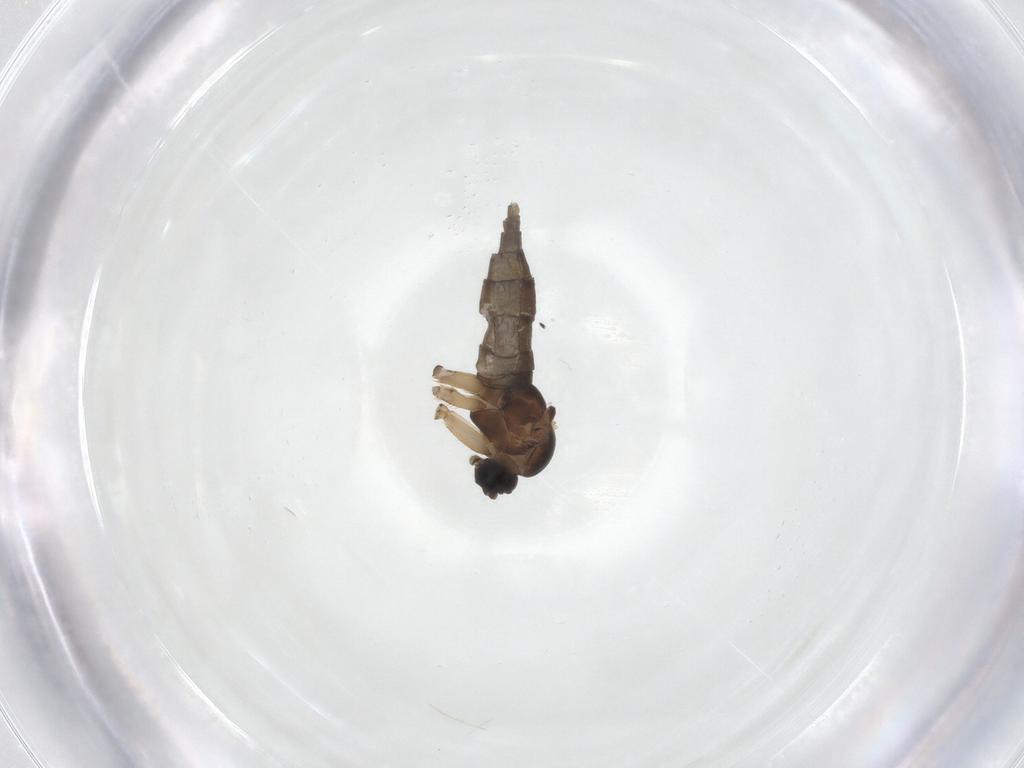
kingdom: Animalia
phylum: Arthropoda
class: Insecta
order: Diptera
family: Sciaridae
